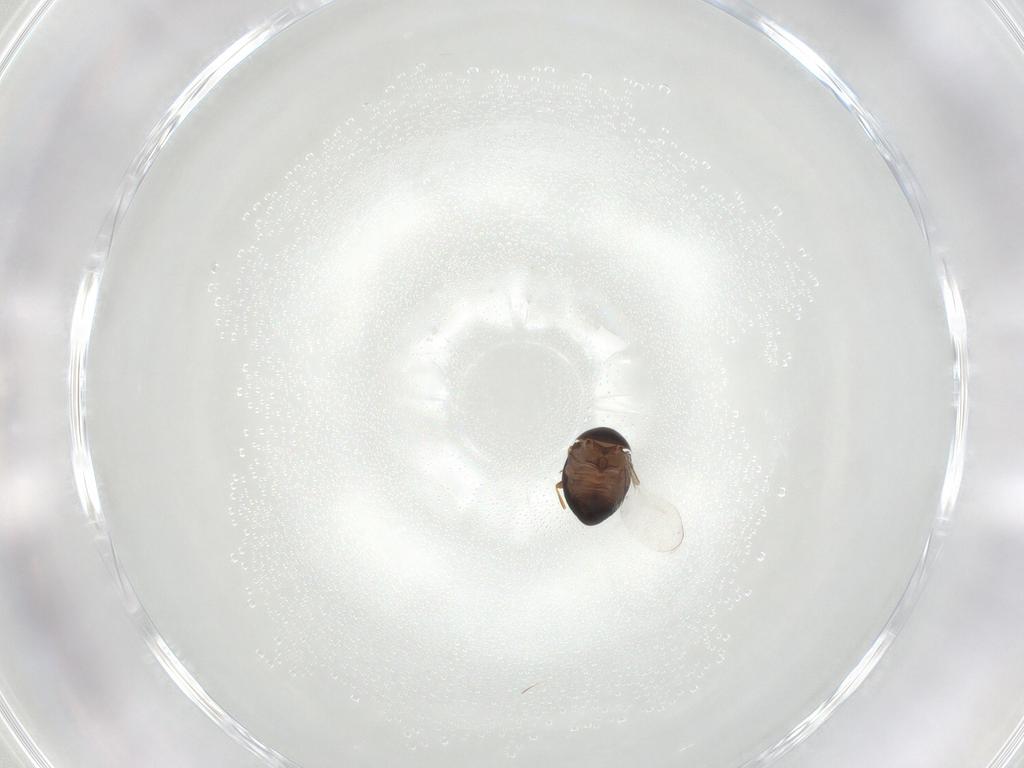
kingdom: Animalia
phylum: Arthropoda
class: Insecta
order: Coleoptera
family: Corylophidae
